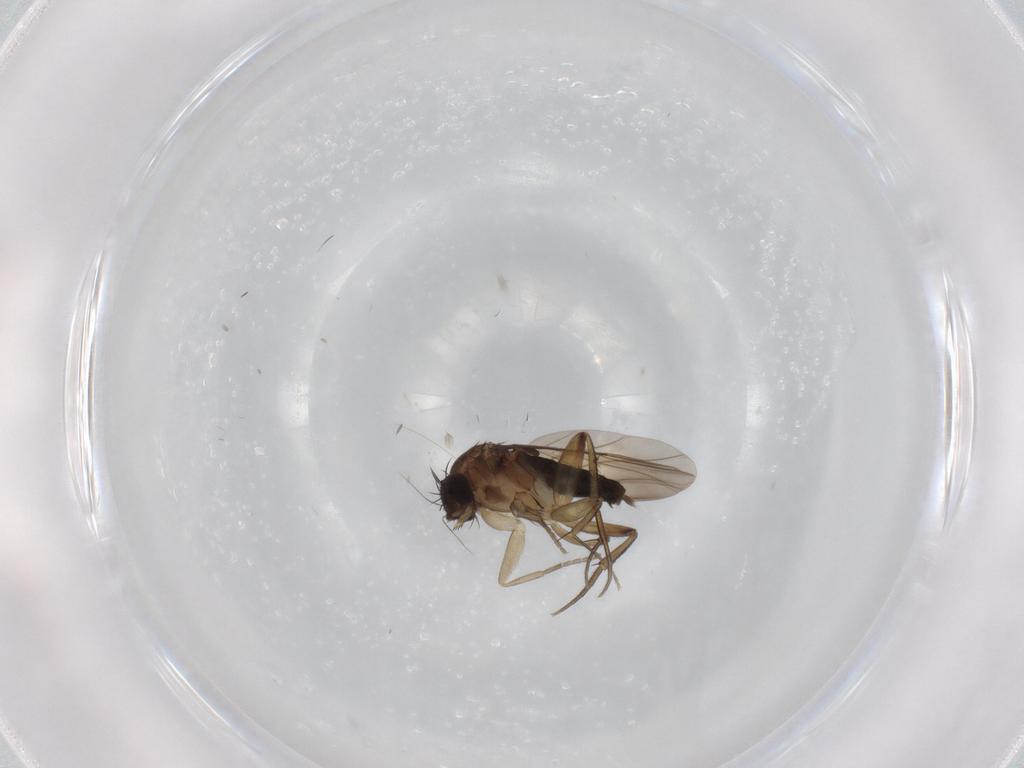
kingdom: Animalia
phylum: Arthropoda
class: Insecta
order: Diptera
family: Phoridae
